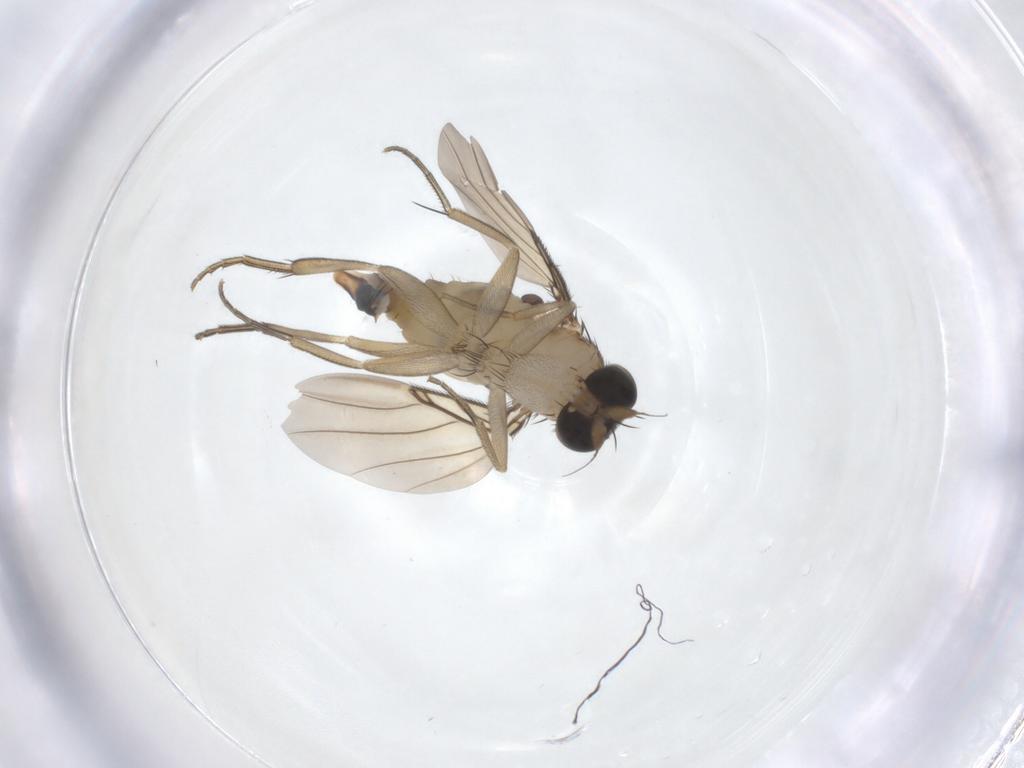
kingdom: Animalia
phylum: Arthropoda
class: Insecta
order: Diptera
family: Phoridae
